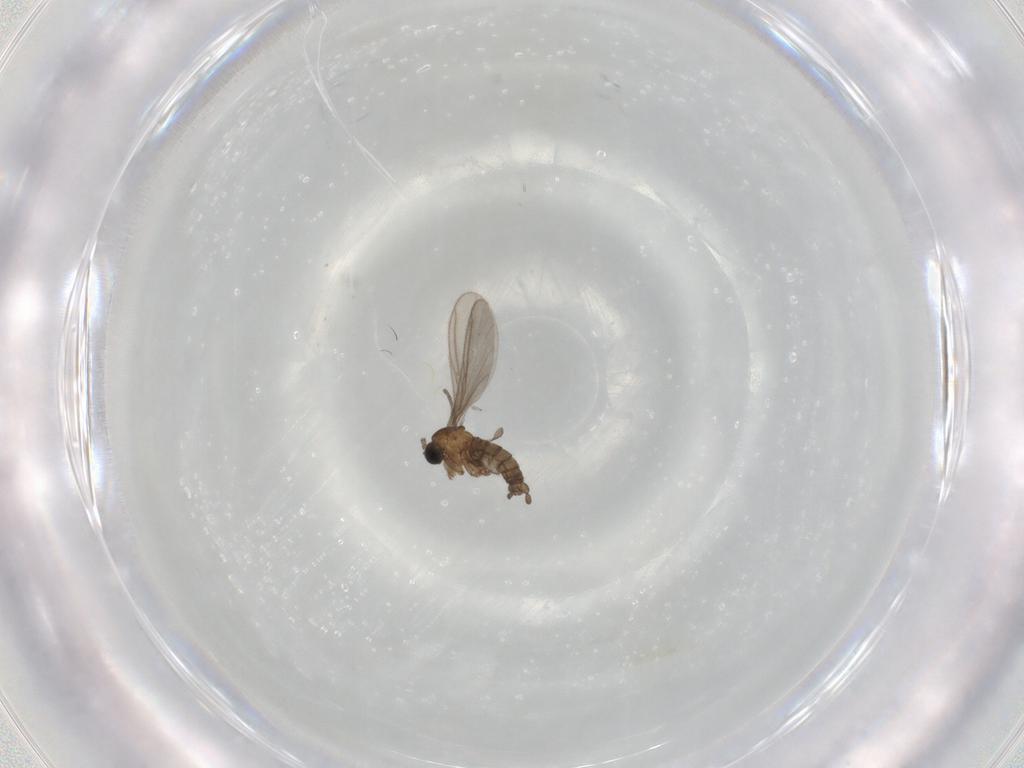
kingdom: Animalia
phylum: Arthropoda
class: Insecta
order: Diptera
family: Sciaridae
